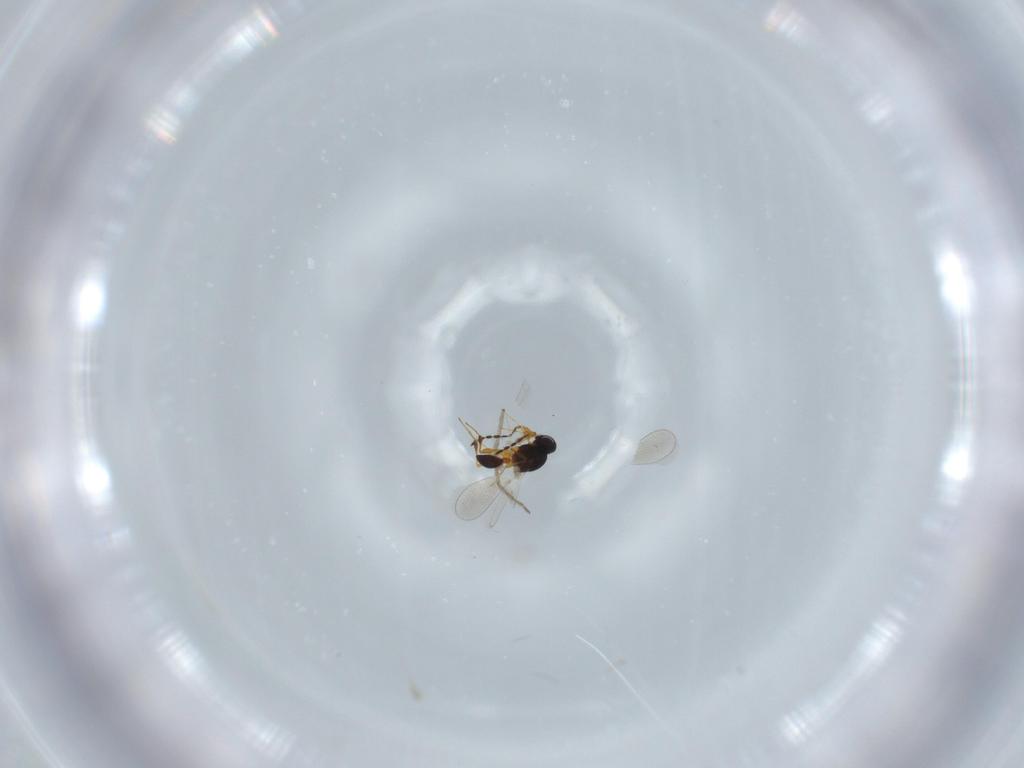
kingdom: Animalia
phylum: Arthropoda
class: Insecta
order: Hymenoptera
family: Platygastridae
